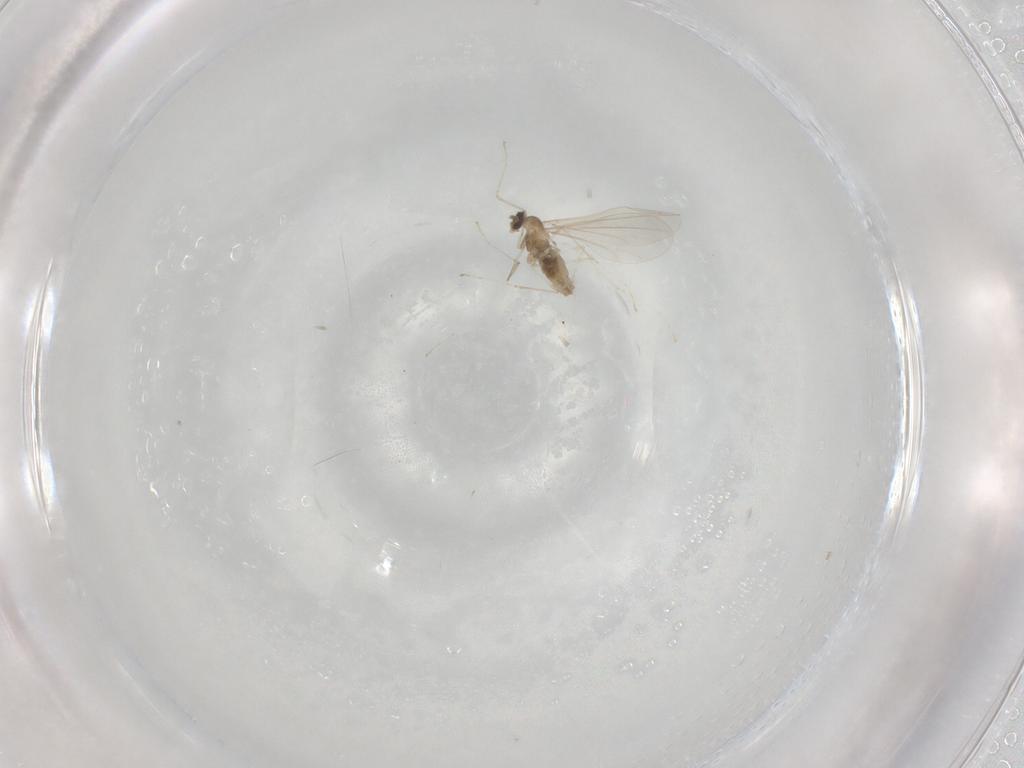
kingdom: Animalia
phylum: Arthropoda
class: Insecta
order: Diptera
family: Cecidomyiidae
